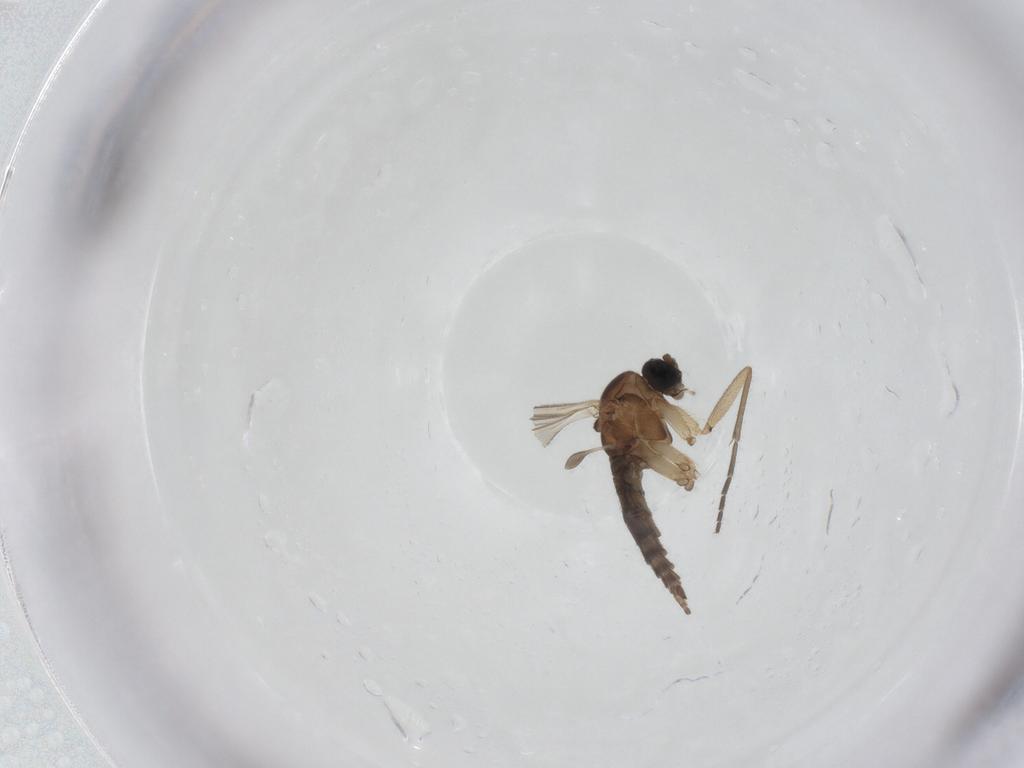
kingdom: Animalia
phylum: Arthropoda
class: Insecta
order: Diptera
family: Sciaridae
